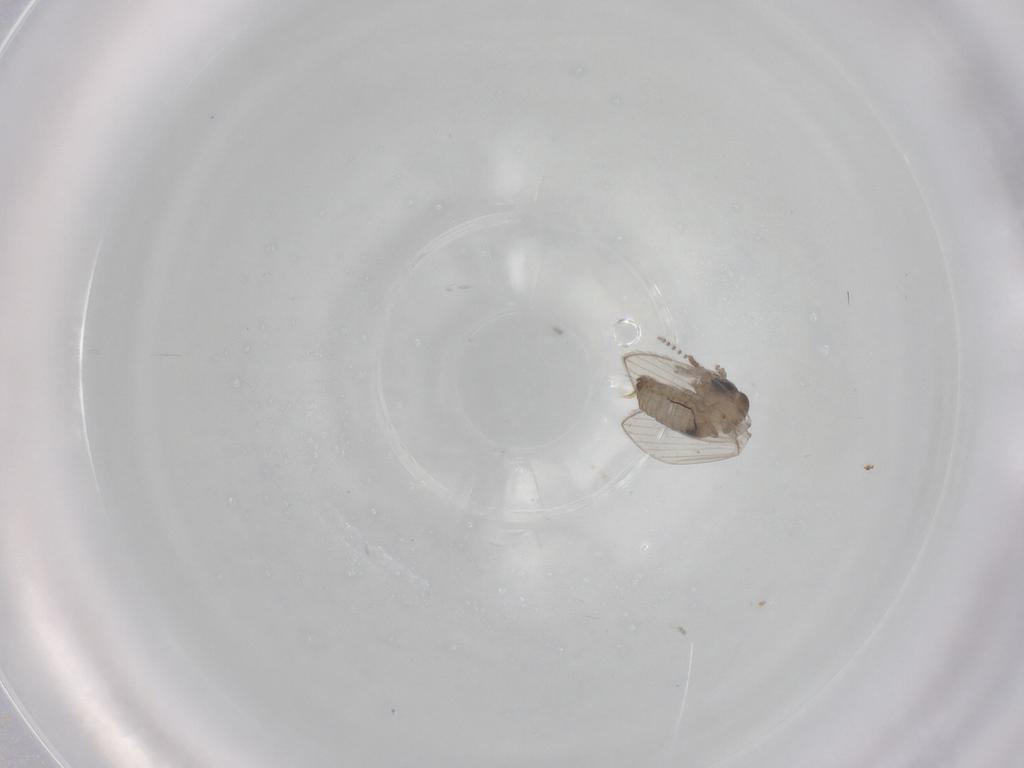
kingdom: Animalia
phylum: Arthropoda
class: Insecta
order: Diptera
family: Psychodidae
